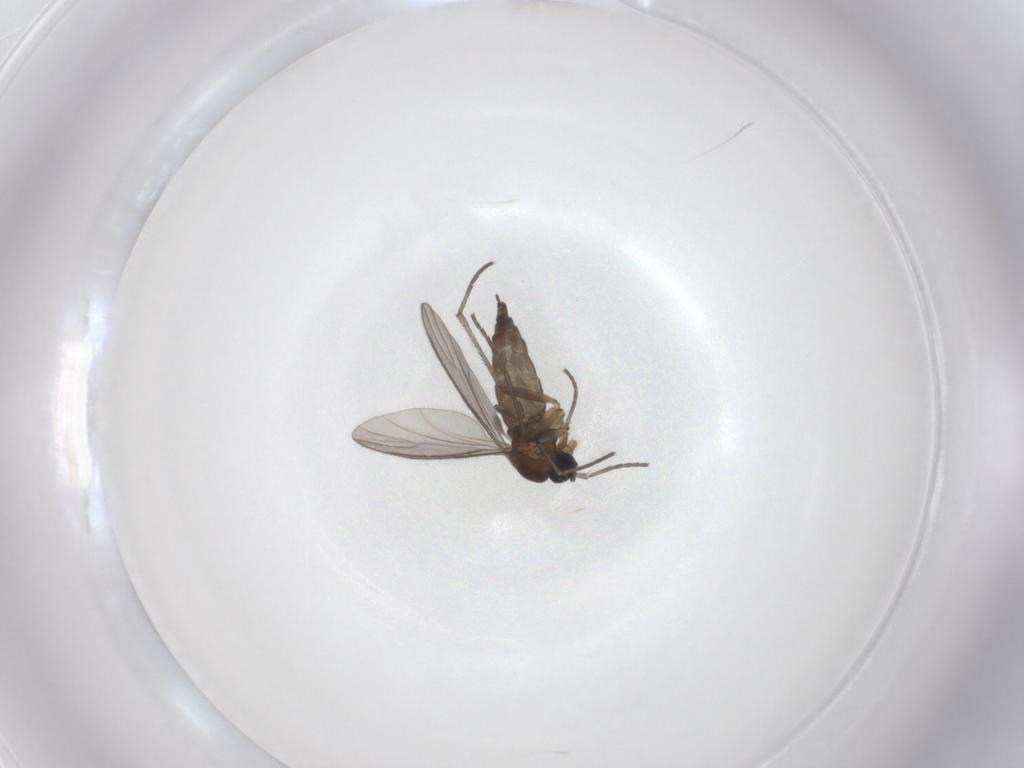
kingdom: Animalia
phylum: Arthropoda
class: Insecta
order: Diptera
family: Sciaridae
